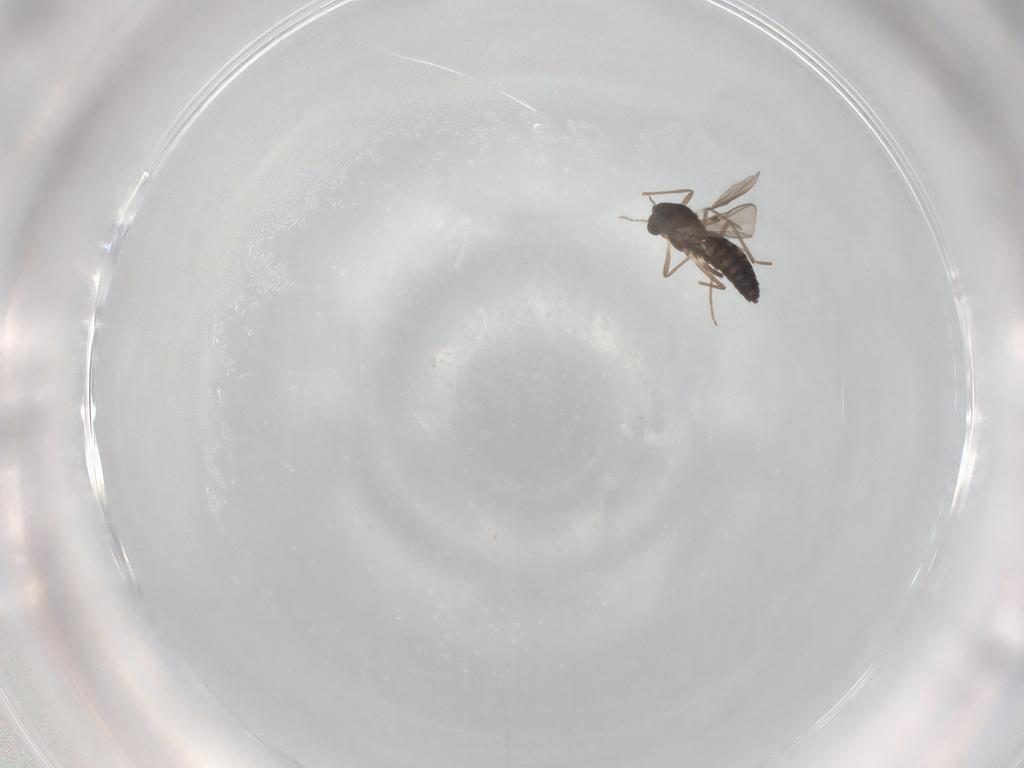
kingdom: Animalia
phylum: Arthropoda
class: Insecta
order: Diptera
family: Chironomidae
